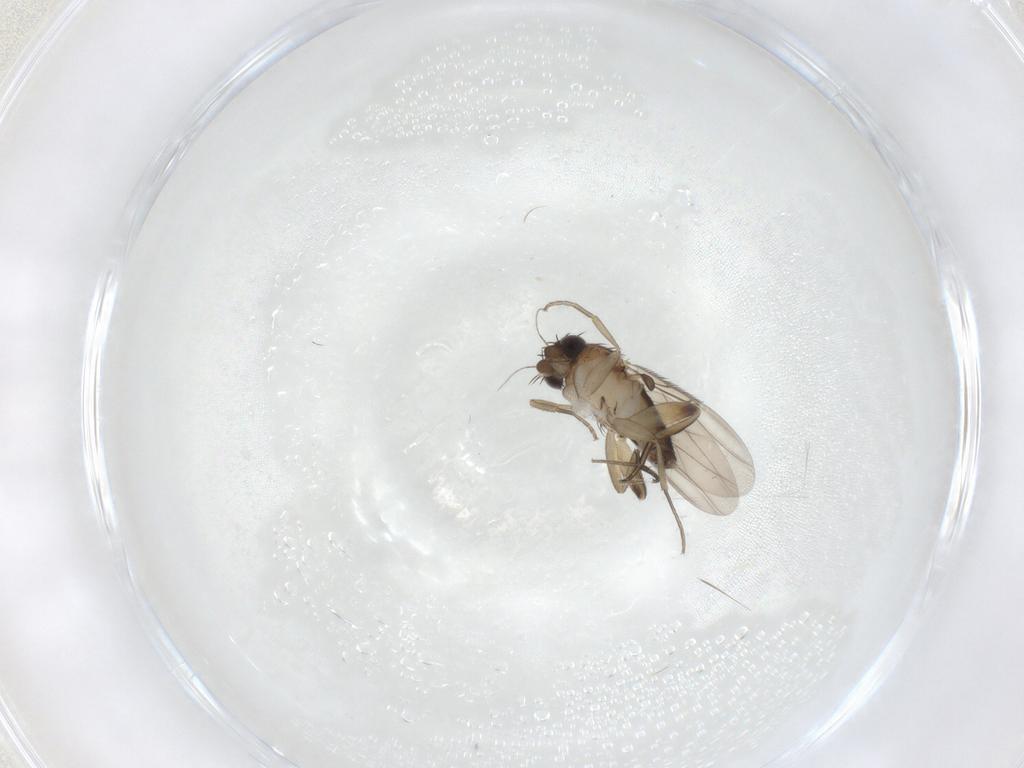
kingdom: Animalia
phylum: Arthropoda
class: Insecta
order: Diptera
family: Phoridae
